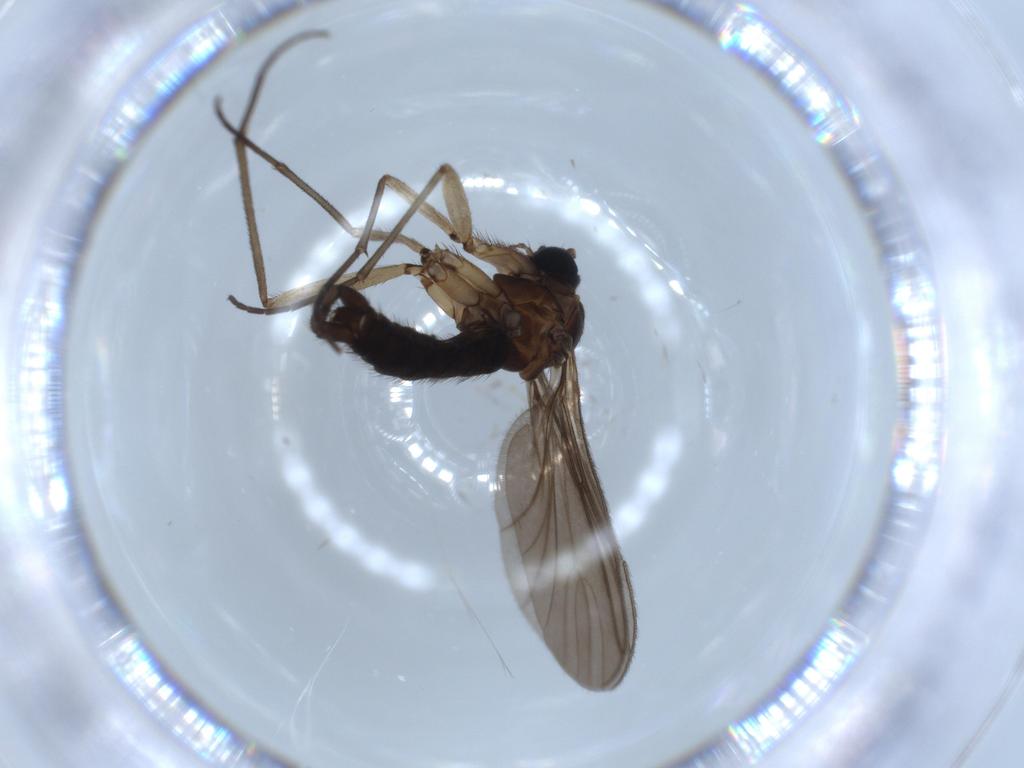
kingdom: Animalia
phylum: Arthropoda
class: Insecta
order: Diptera
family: Sciaridae
